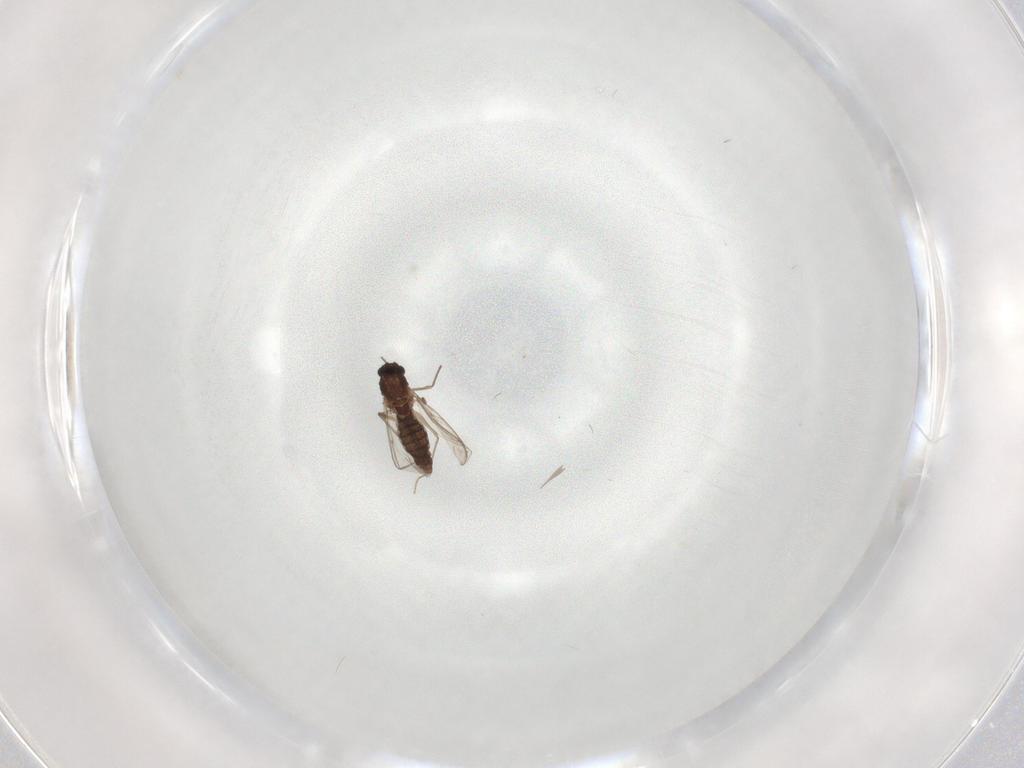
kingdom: Animalia
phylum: Arthropoda
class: Insecta
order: Diptera
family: Chironomidae
